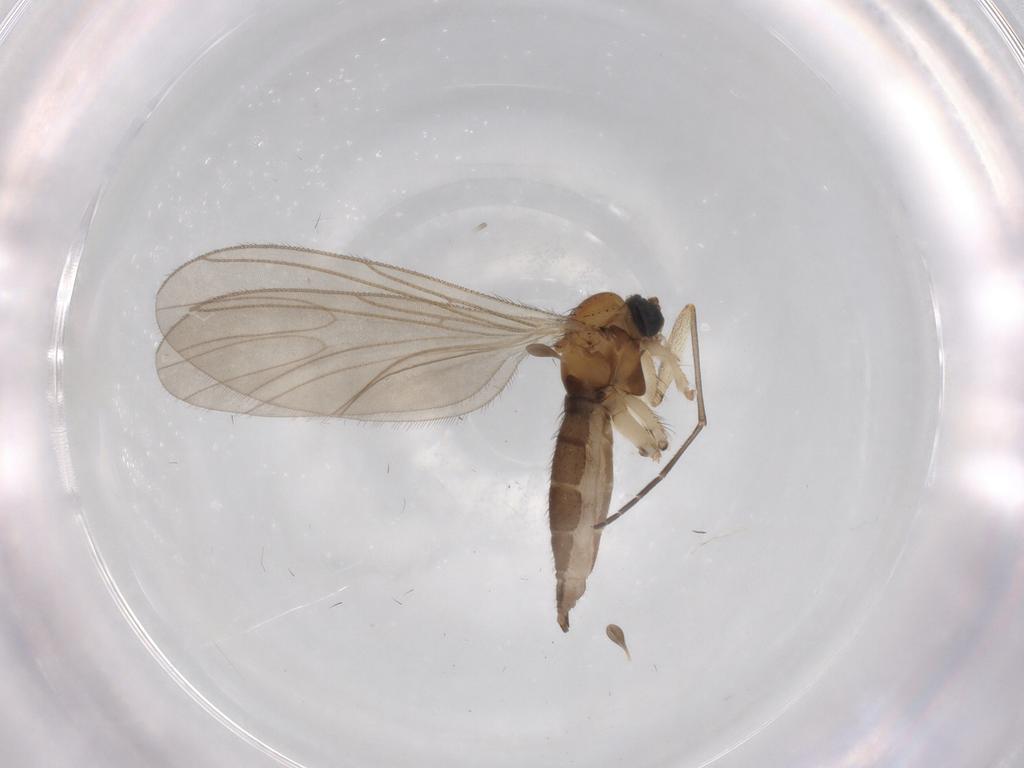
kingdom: Animalia
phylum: Arthropoda
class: Insecta
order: Diptera
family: Sciaridae
